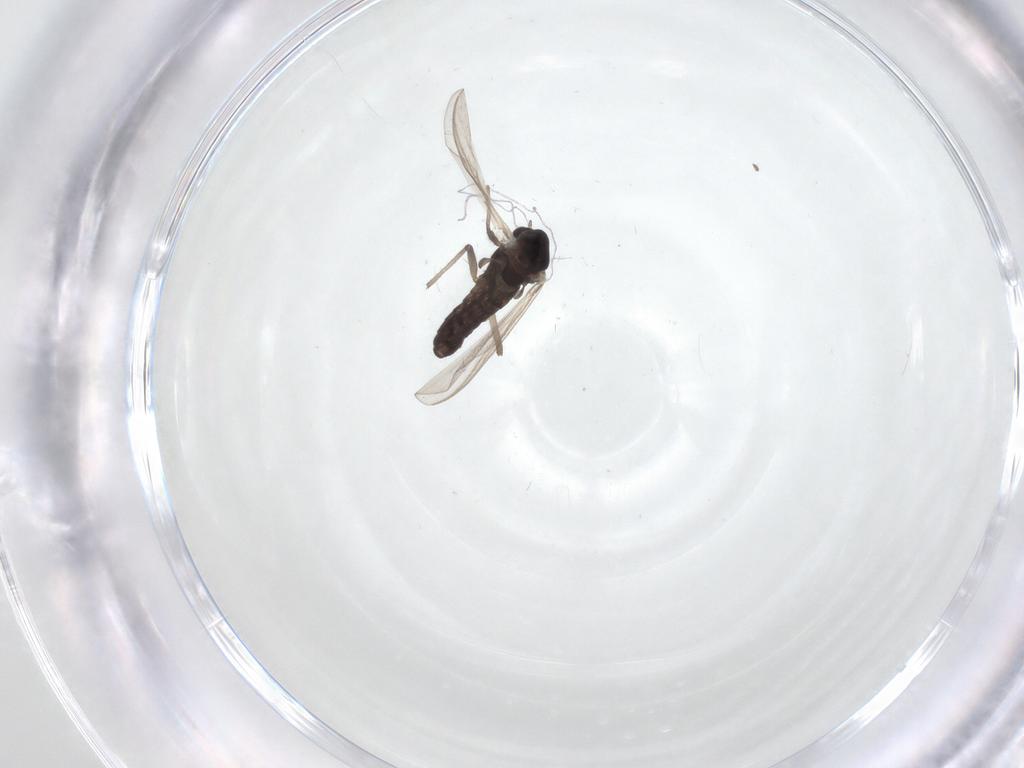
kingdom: Animalia
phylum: Arthropoda
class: Insecta
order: Diptera
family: Chironomidae
